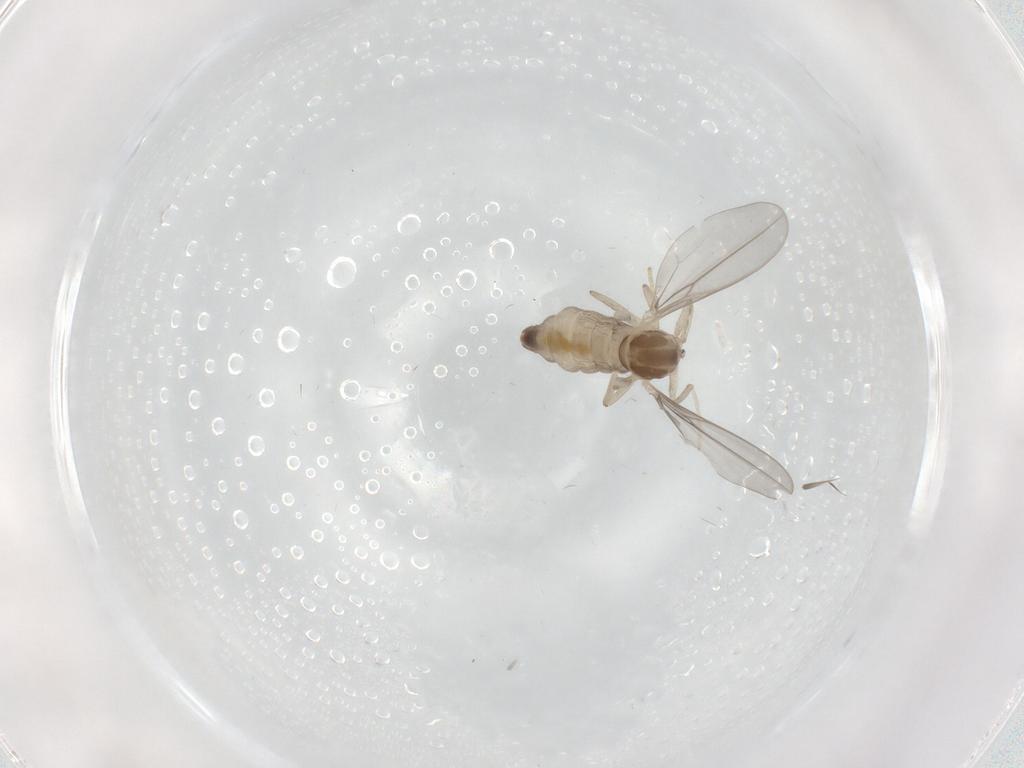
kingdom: Animalia
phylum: Arthropoda
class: Insecta
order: Diptera
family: Cecidomyiidae
